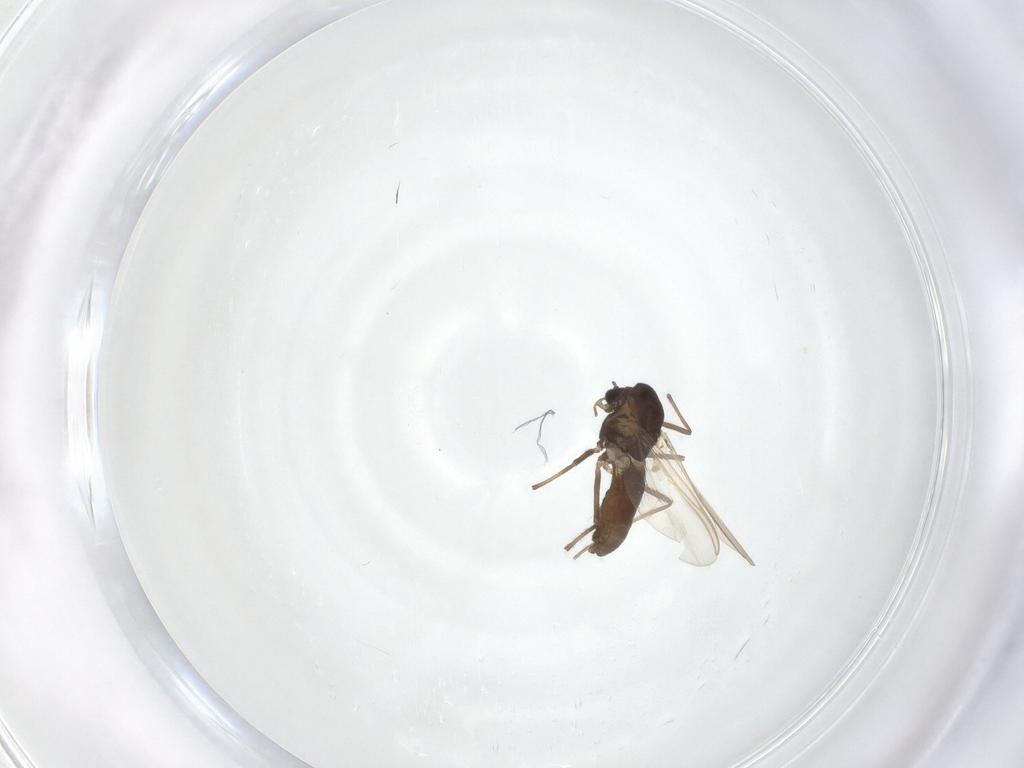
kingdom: Animalia
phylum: Arthropoda
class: Insecta
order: Diptera
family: Chironomidae
